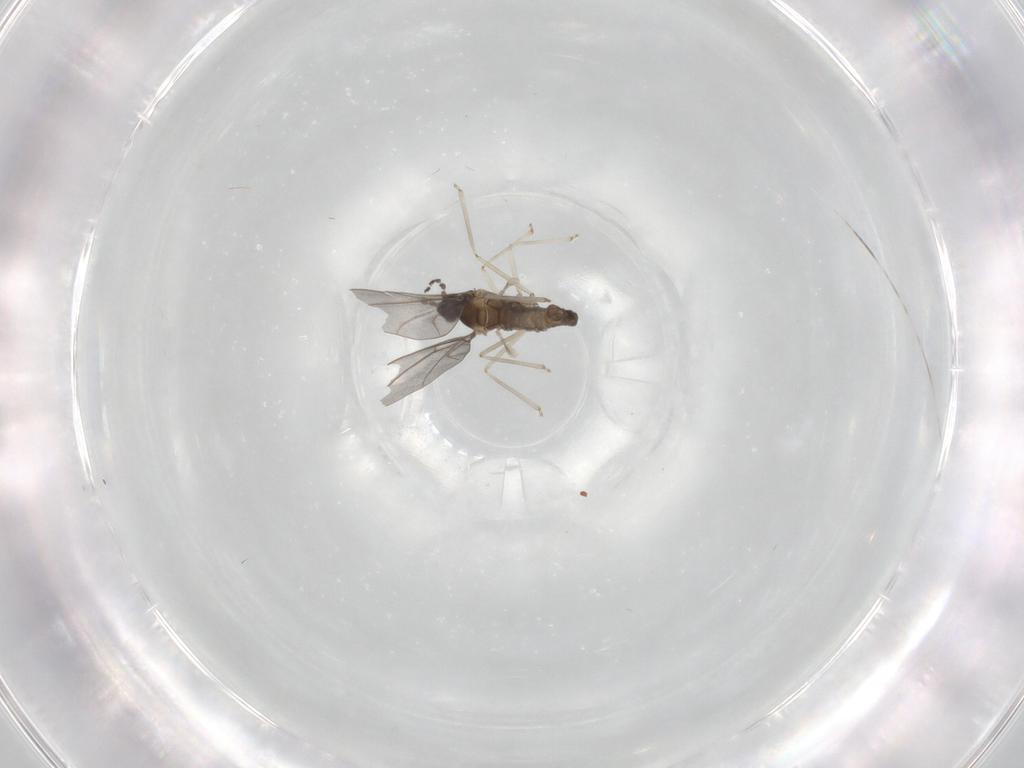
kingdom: Animalia
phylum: Arthropoda
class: Insecta
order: Diptera
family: Cecidomyiidae
